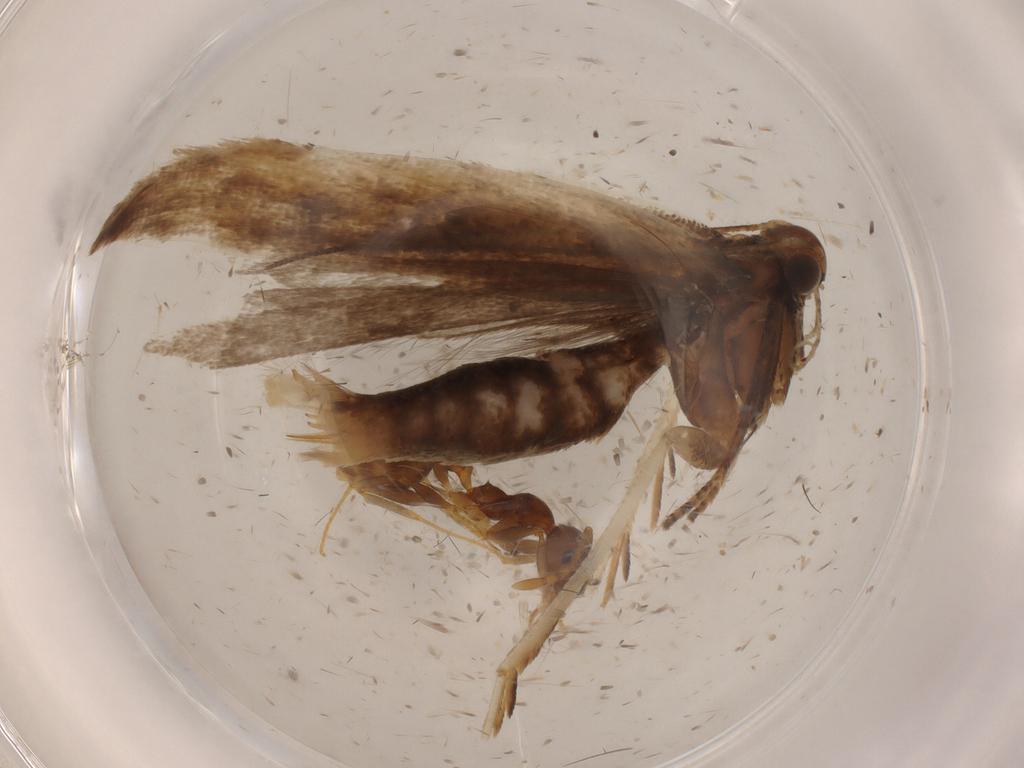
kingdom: Animalia
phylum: Arthropoda
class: Insecta
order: Lepidoptera
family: Gelechiidae
